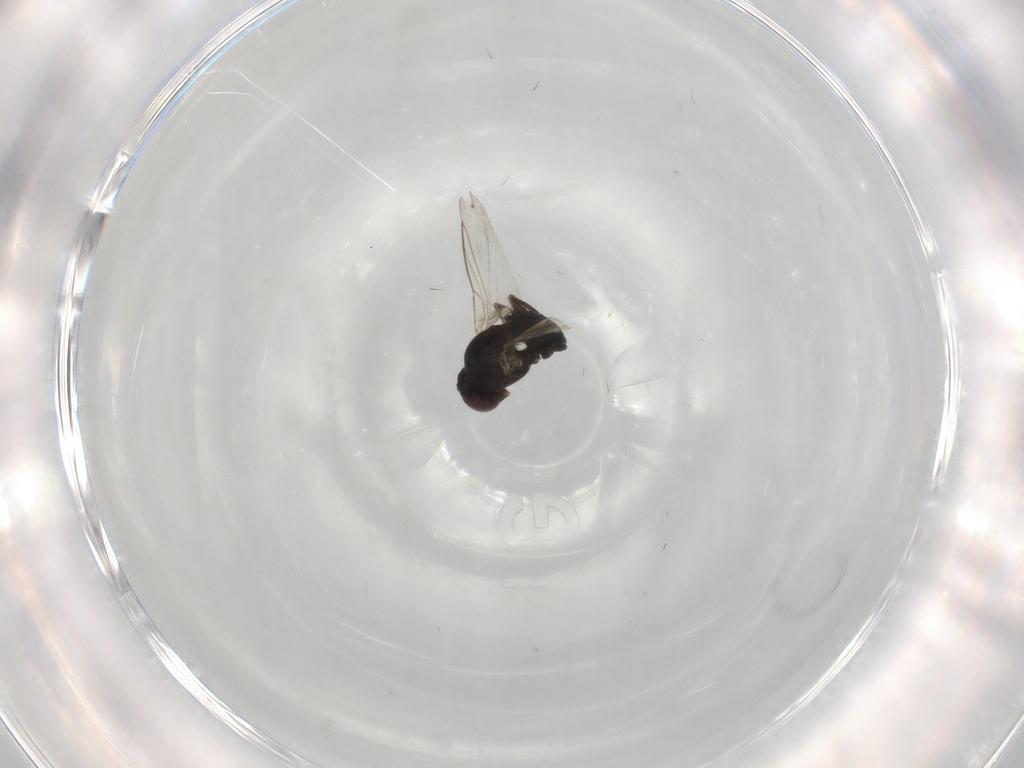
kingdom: Animalia
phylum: Arthropoda
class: Insecta
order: Diptera
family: Agromyzidae
